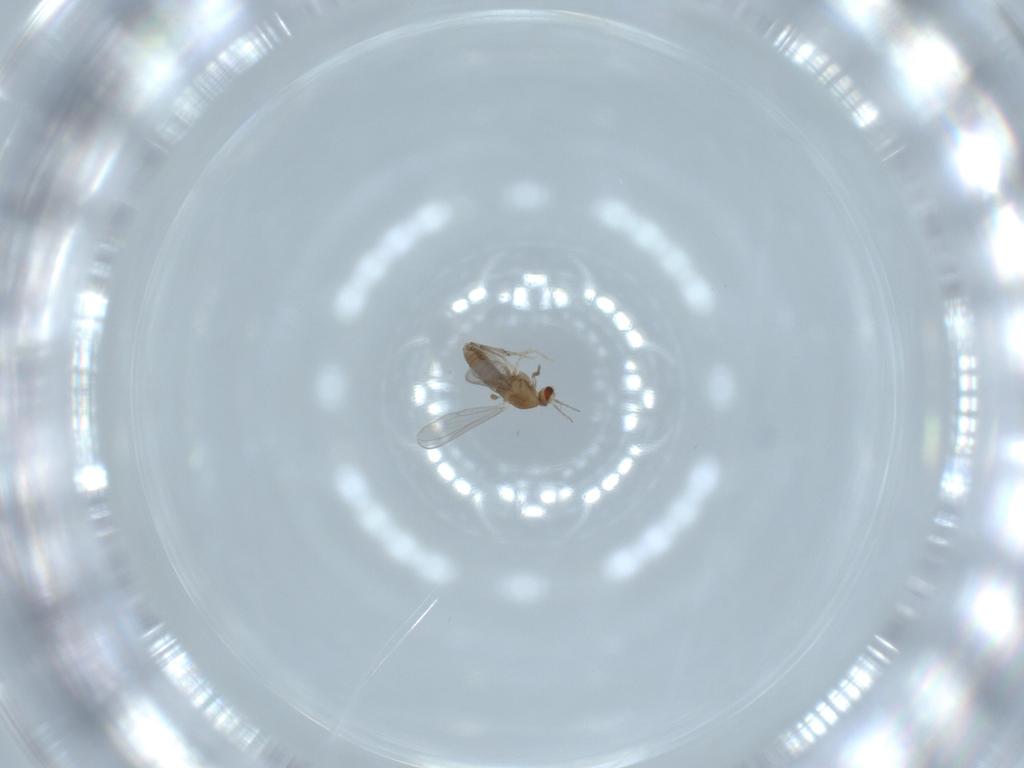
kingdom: Animalia
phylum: Arthropoda
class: Insecta
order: Diptera
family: Chironomidae
